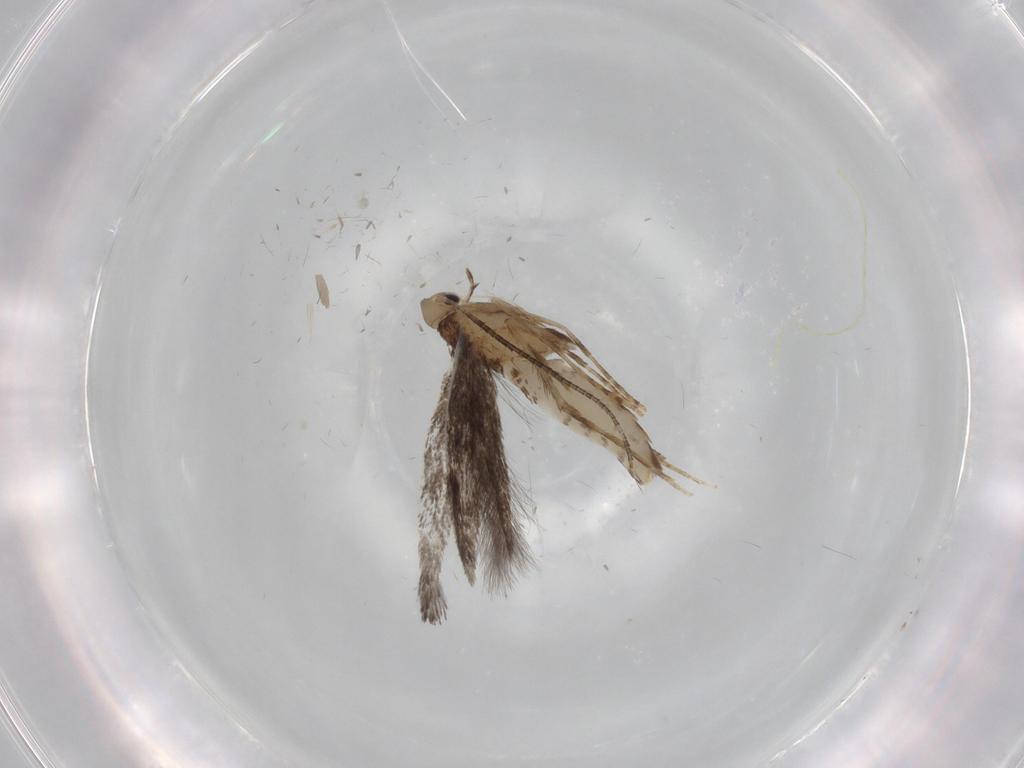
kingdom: Animalia
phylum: Arthropoda
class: Insecta
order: Lepidoptera
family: Gracillariidae
